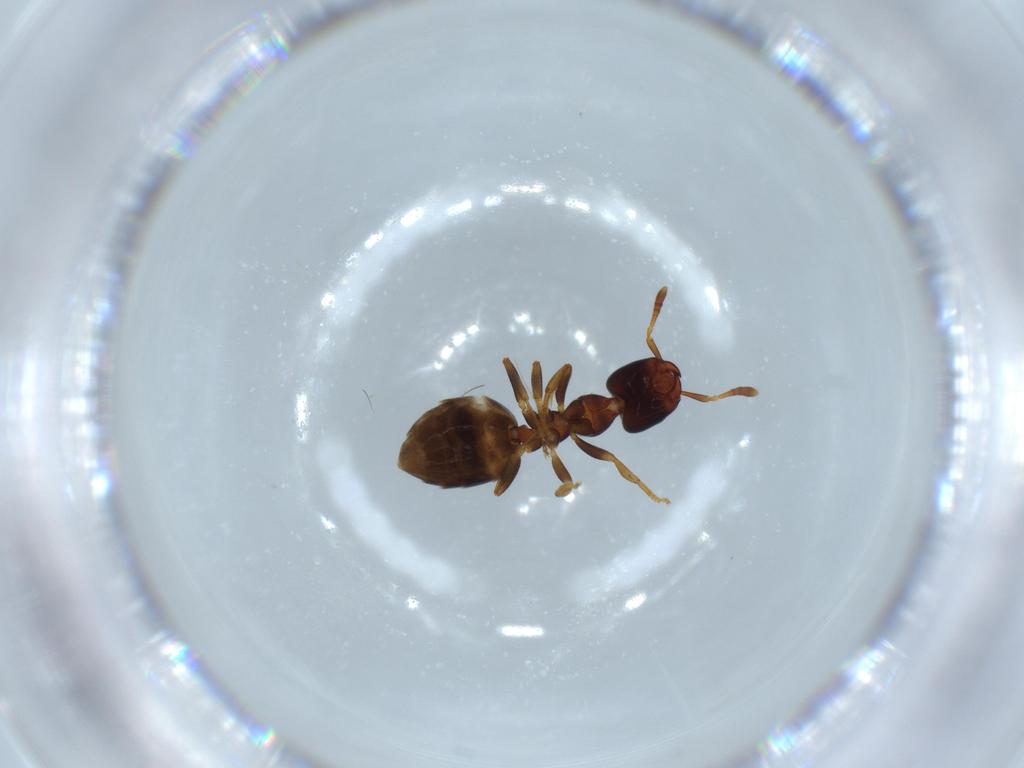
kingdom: Animalia
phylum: Arthropoda
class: Insecta
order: Hymenoptera
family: Formicidae
